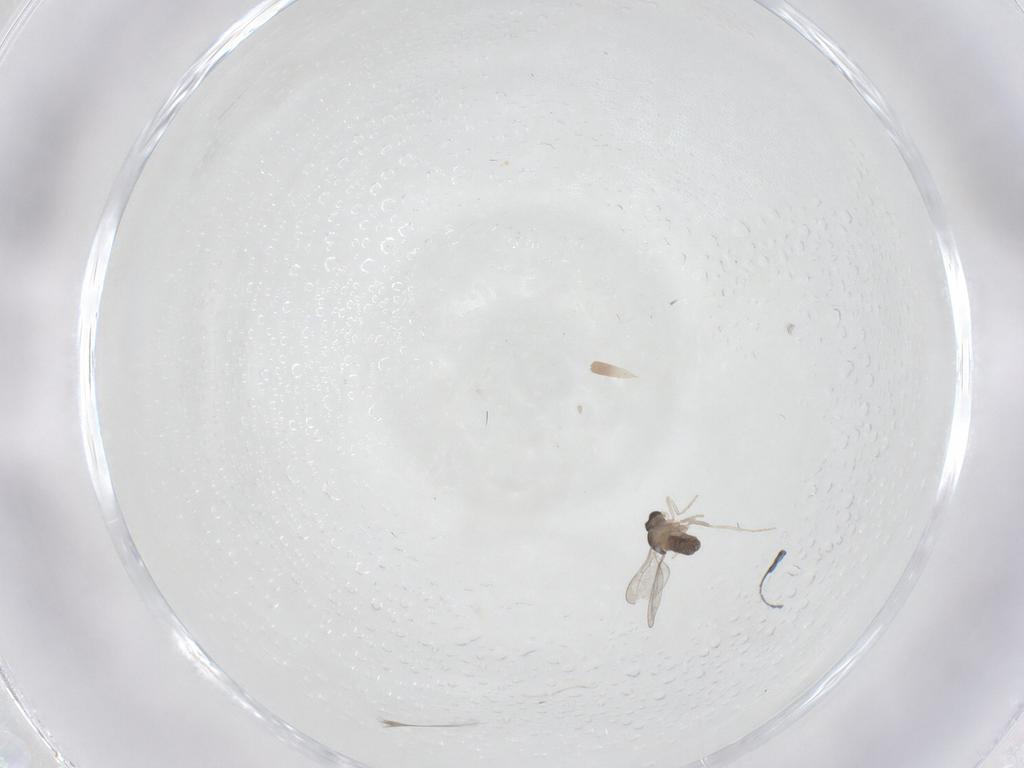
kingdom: Animalia
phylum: Arthropoda
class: Insecta
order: Diptera
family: Cecidomyiidae
